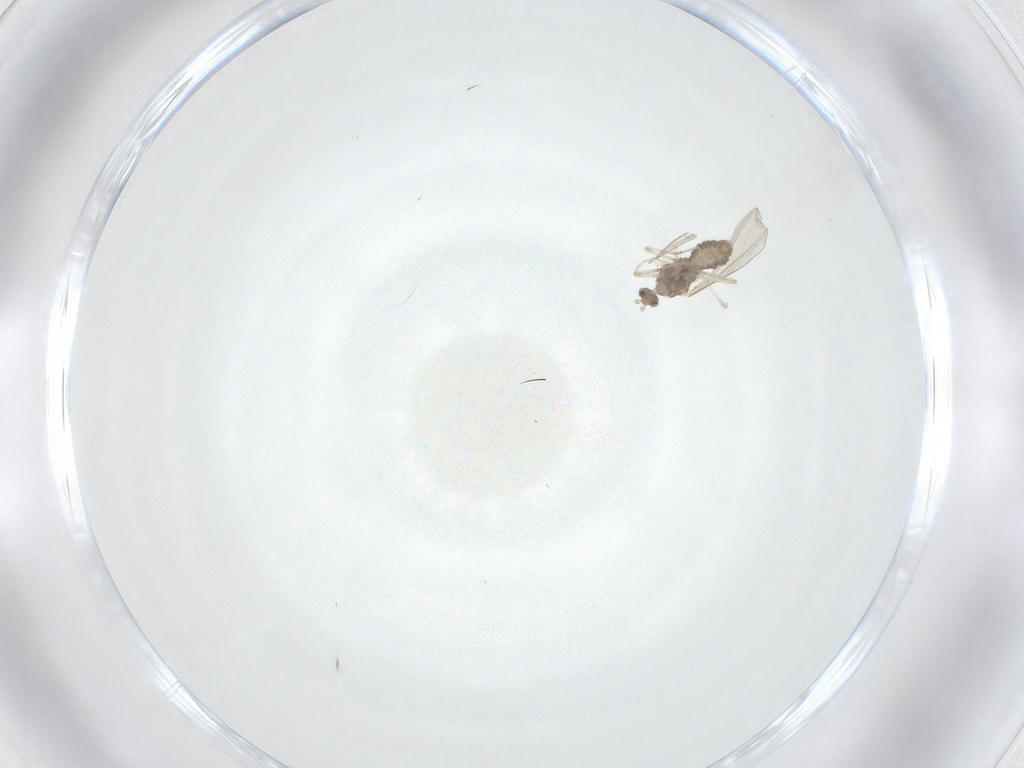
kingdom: Animalia
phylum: Arthropoda
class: Insecta
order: Diptera
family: Cecidomyiidae
